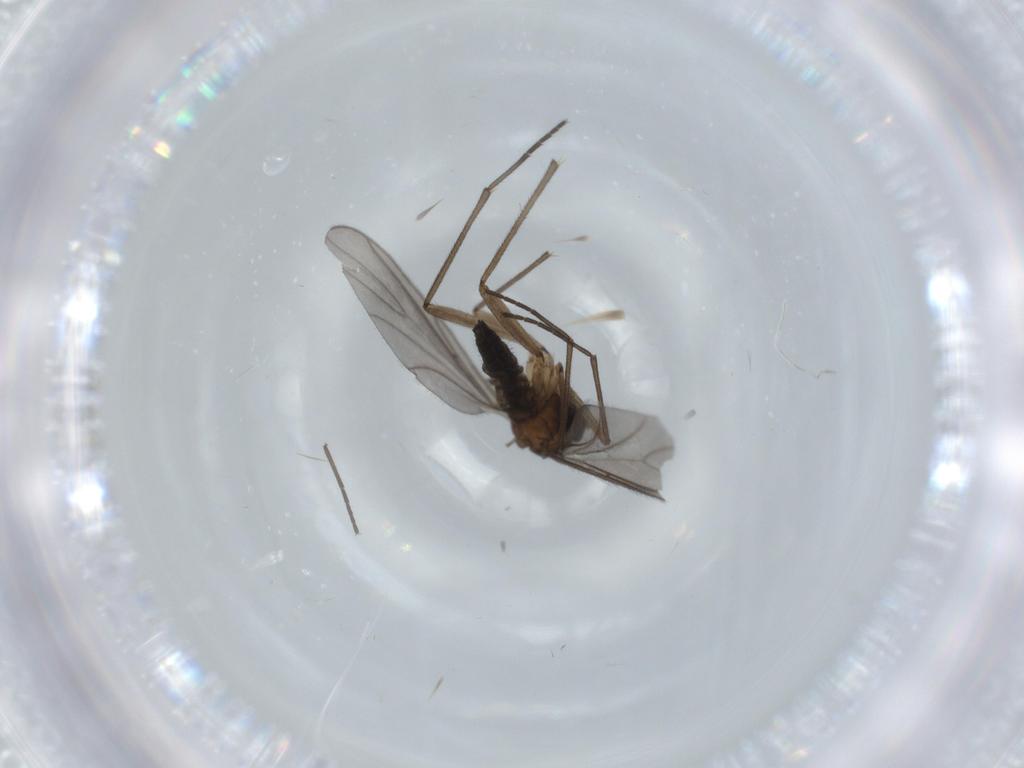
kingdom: Animalia
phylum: Arthropoda
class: Insecta
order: Diptera
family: Sciaridae
